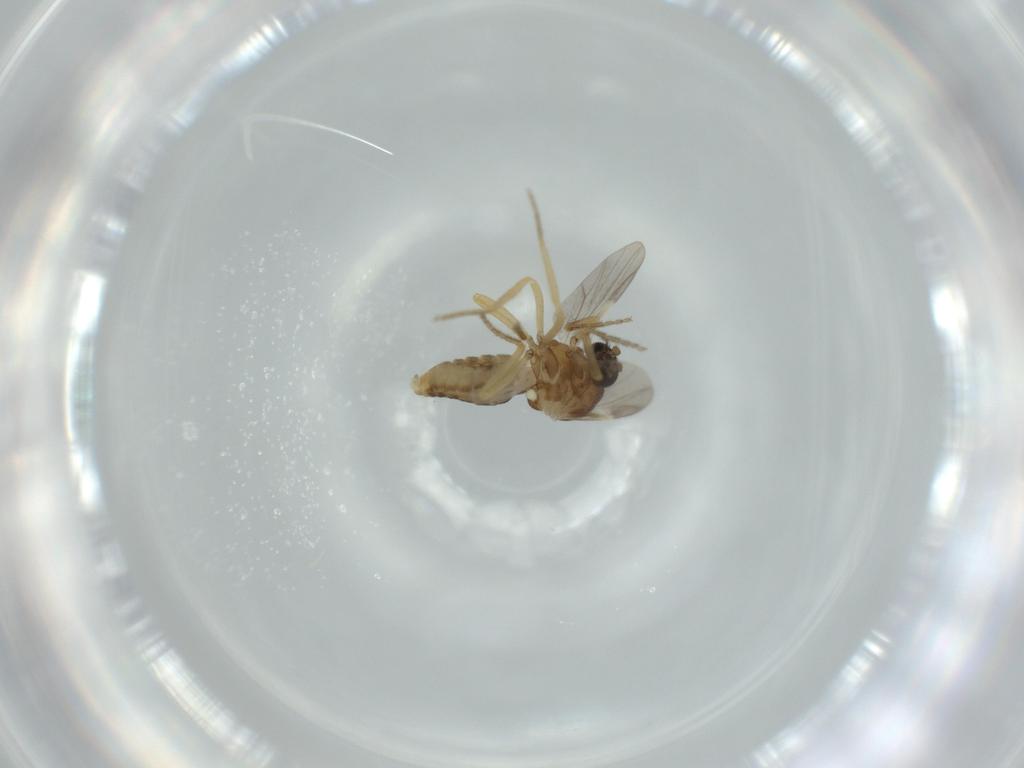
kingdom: Animalia
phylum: Arthropoda
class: Insecta
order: Diptera
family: Ceratopogonidae
